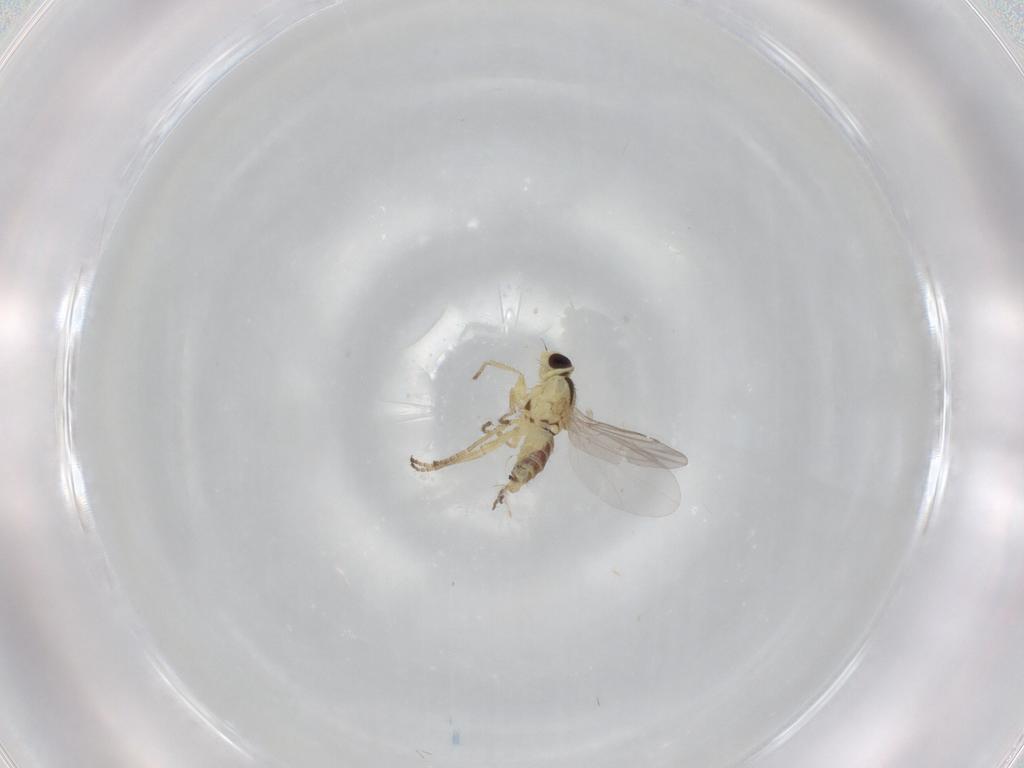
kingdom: Animalia
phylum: Arthropoda
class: Insecta
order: Diptera
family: Agromyzidae
